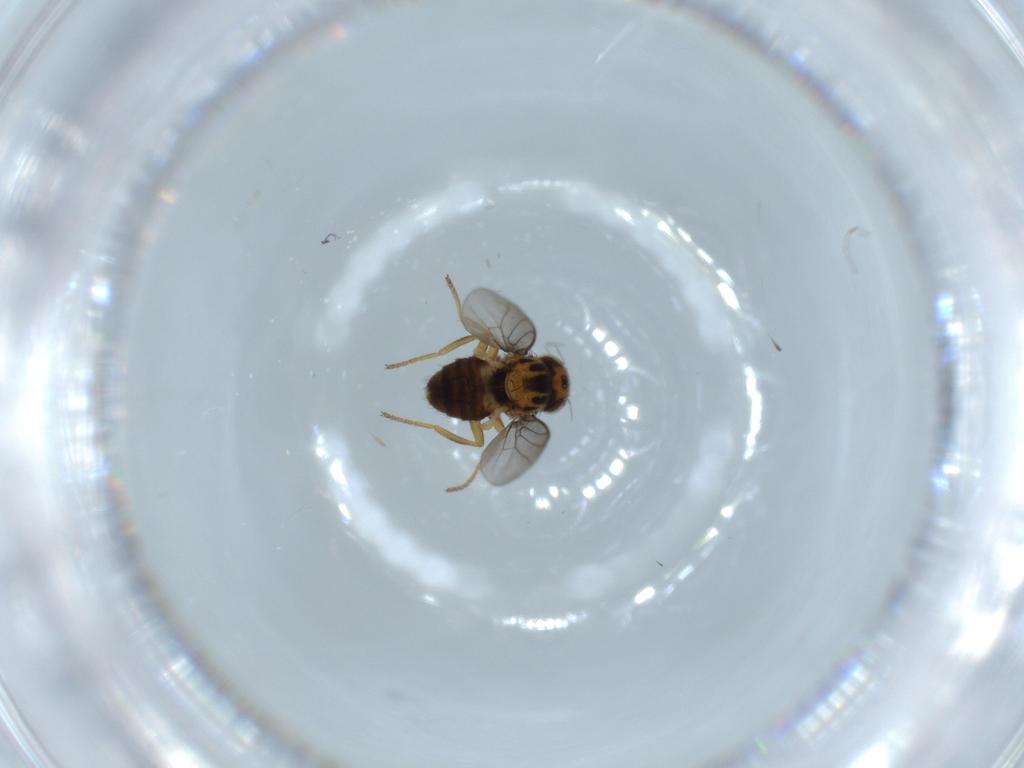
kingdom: Animalia
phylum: Arthropoda
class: Insecta
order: Diptera
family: Chloropidae
